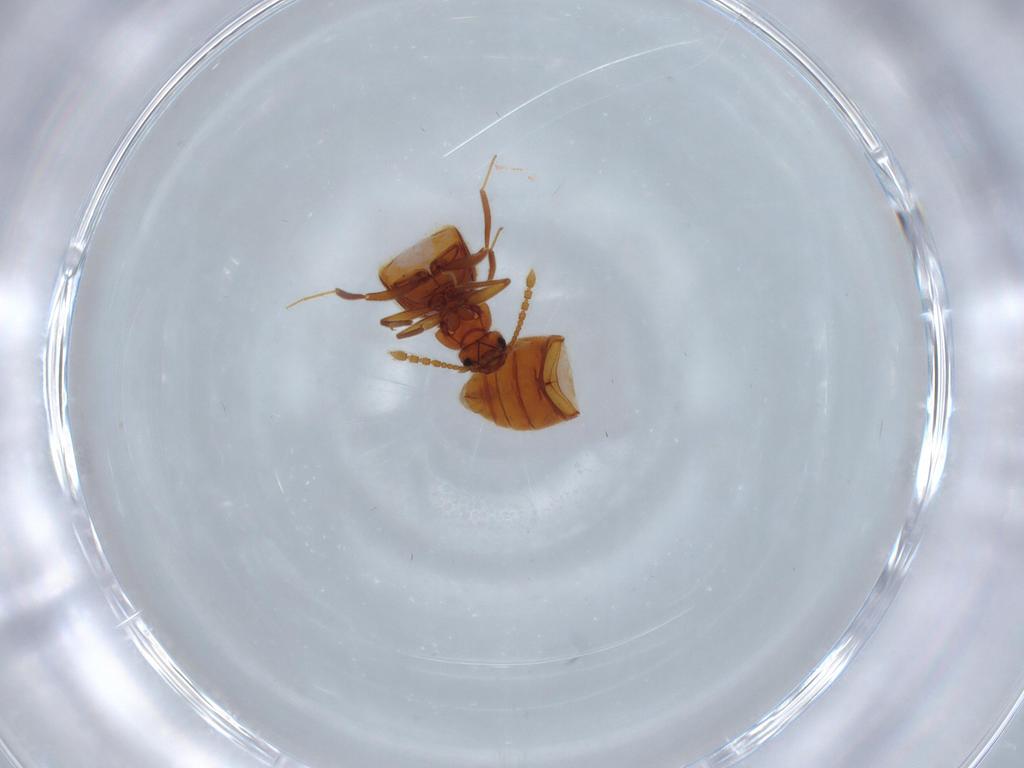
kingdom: Animalia
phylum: Arthropoda
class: Insecta
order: Coleoptera
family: Staphylinidae
